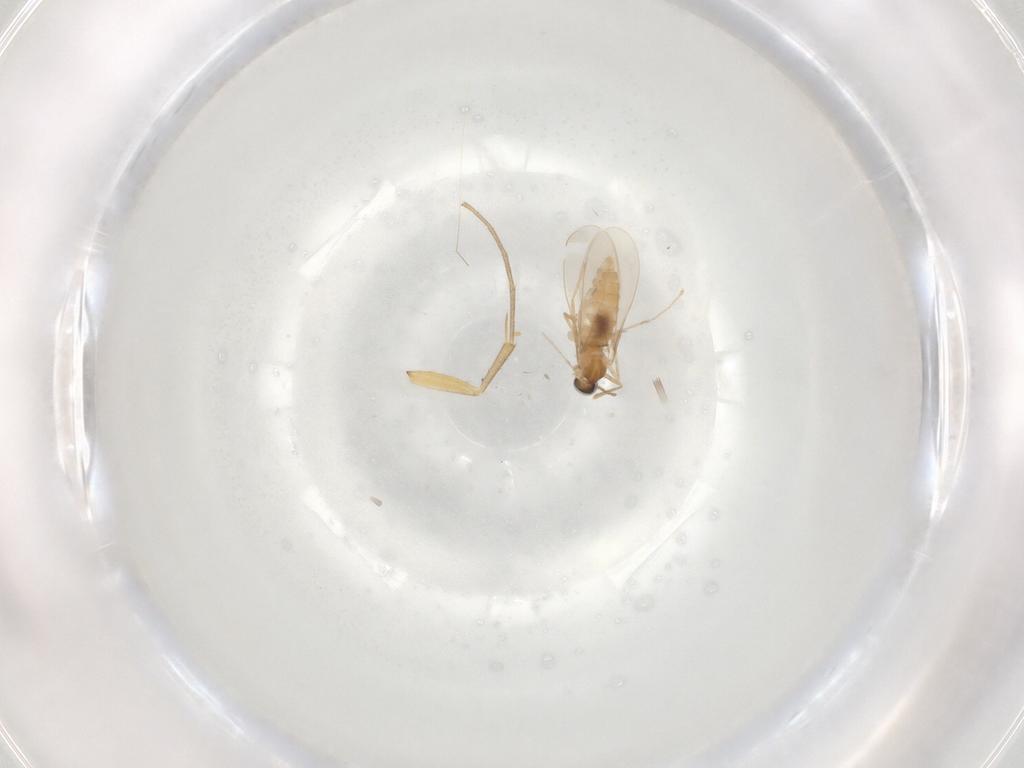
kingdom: Animalia
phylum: Arthropoda
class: Insecta
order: Diptera
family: Mycetophilidae
